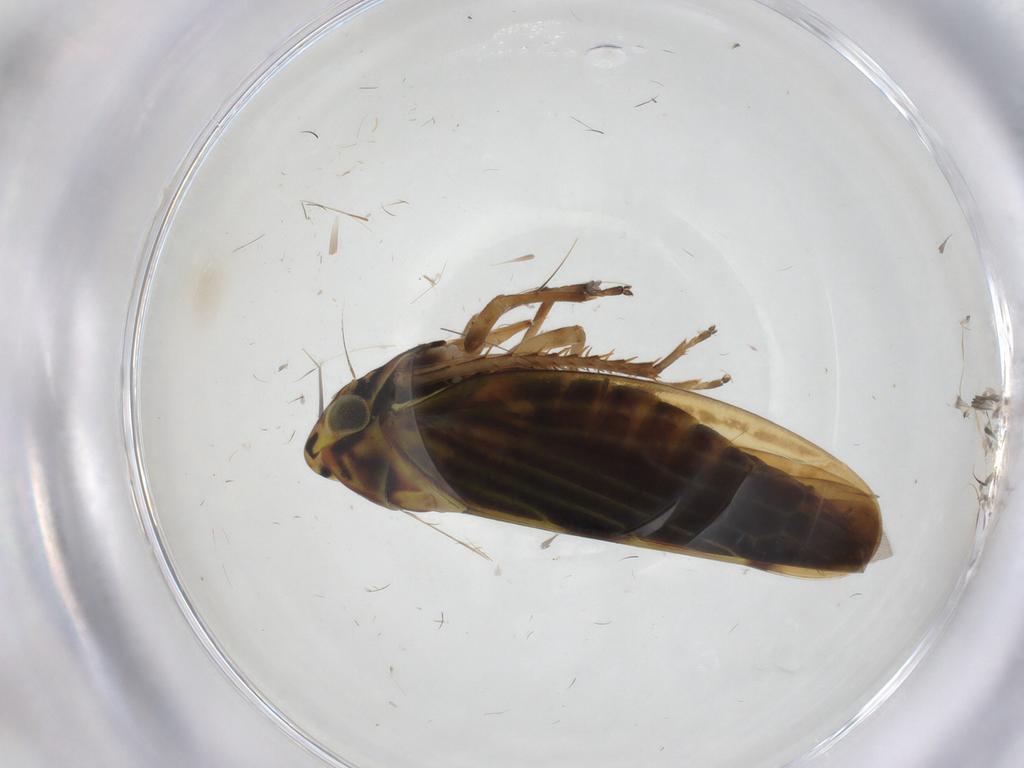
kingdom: Animalia
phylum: Arthropoda
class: Insecta
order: Hemiptera
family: Cicadellidae
